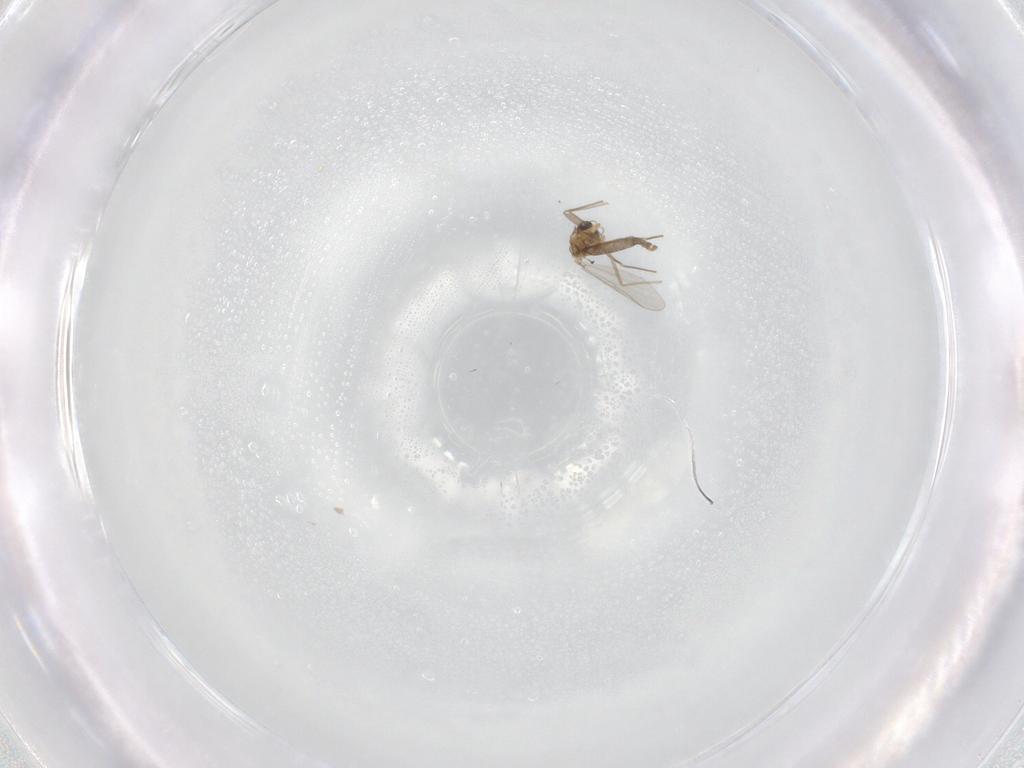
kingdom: Animalia
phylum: Arthropoda
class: Insecta
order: Diptera
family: Chironomidae
